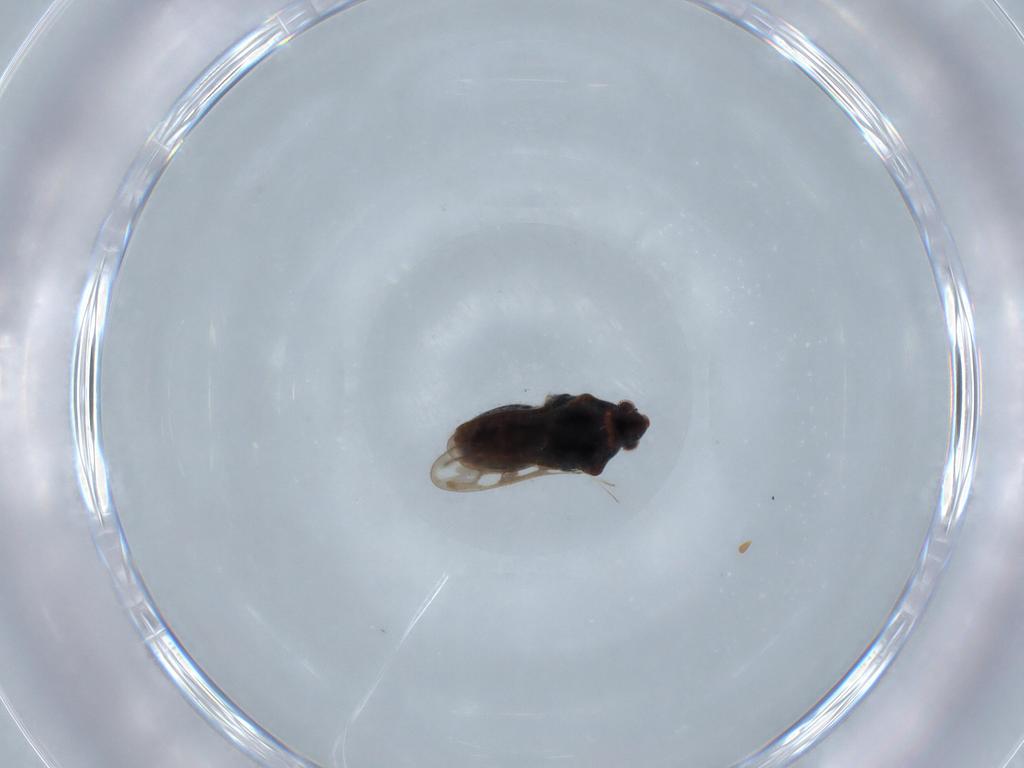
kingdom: Animalia
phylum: Arthropoda
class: Insecta
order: Hemiptera
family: Veliidae
